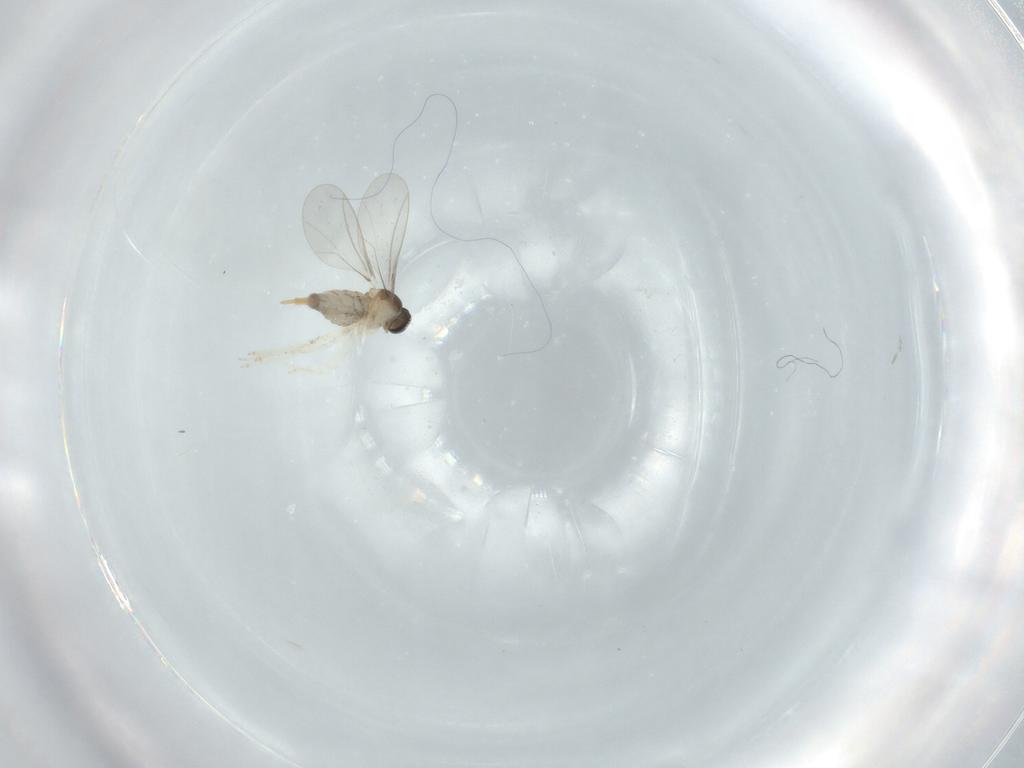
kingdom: Animalia
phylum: Arthropoda
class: Insecta
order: Diptera
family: Cecidomyiidae
